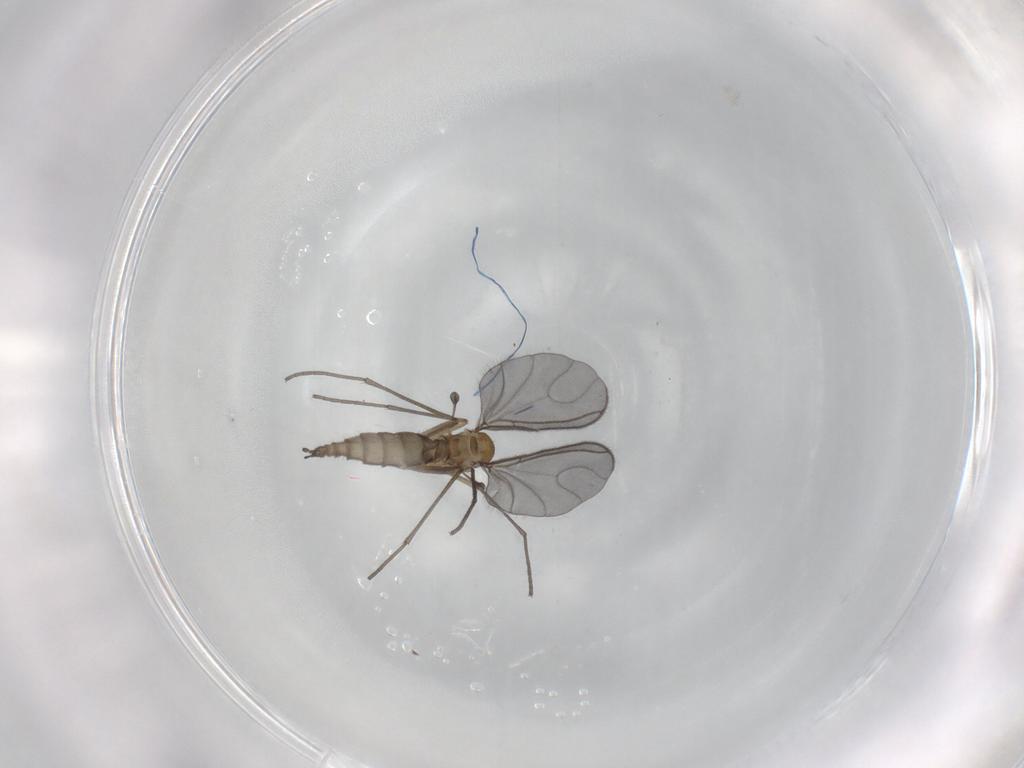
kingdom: Animalia
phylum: Arthropoda
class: Insecta
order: Diptera
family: Sciaridae
